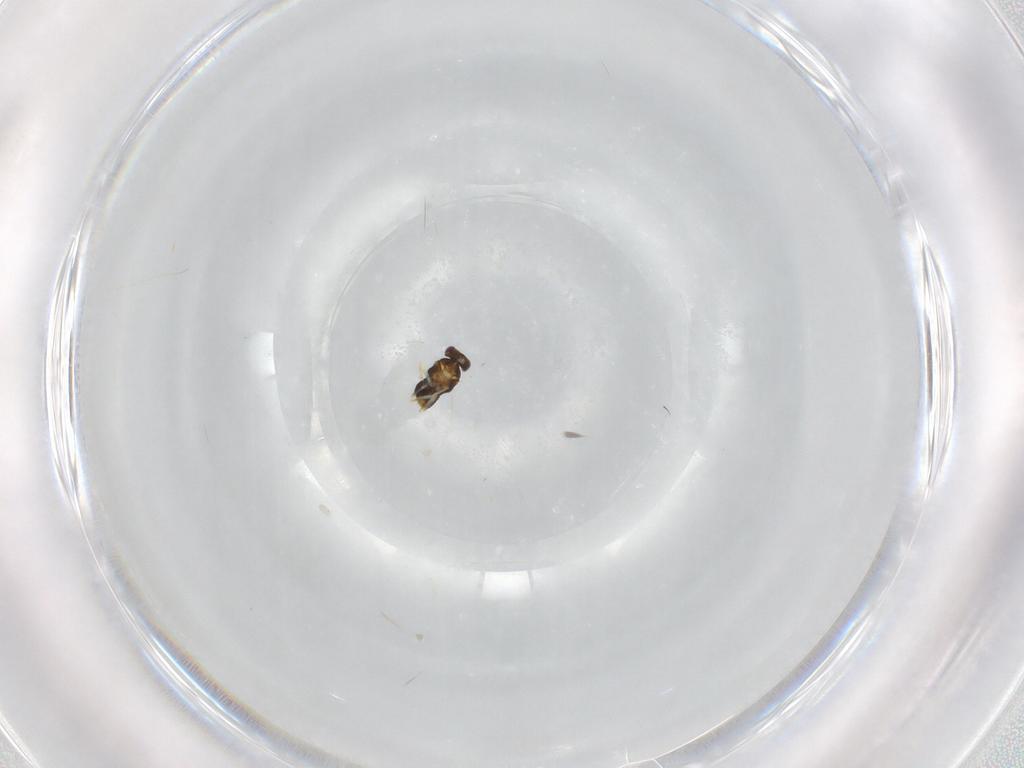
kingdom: Animalia
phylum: Arthropoda
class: Insecta
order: Hymenoptera
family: Aphelinidae
